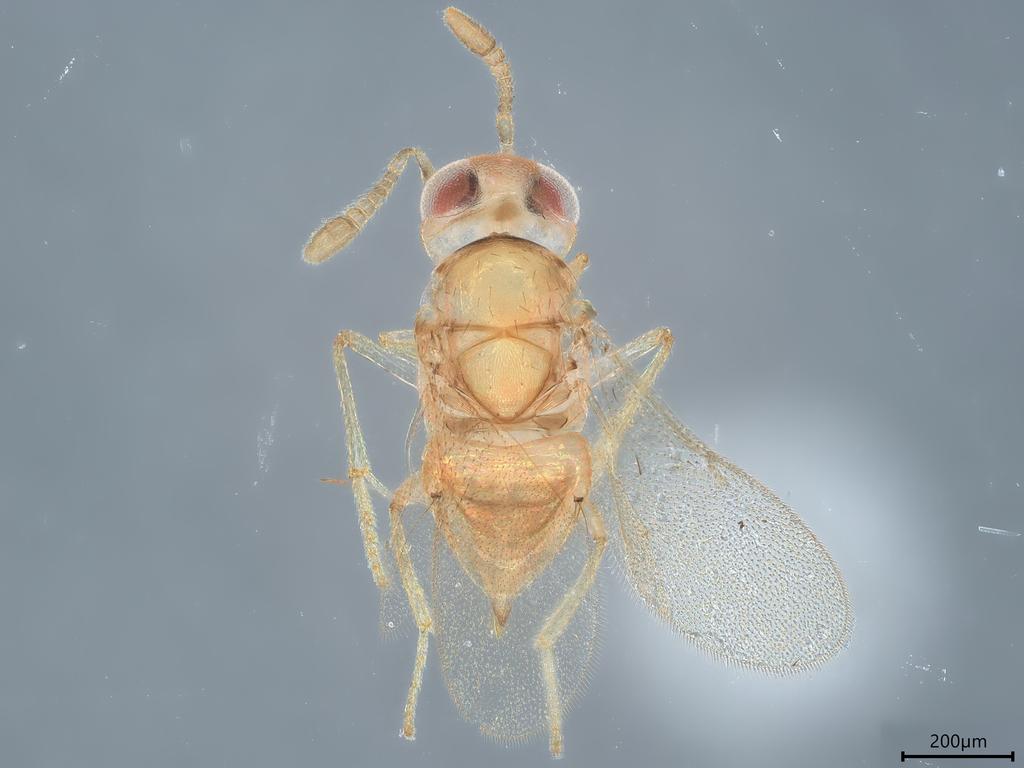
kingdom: Animalia
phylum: Arthropoda
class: Insecta
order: Hymenoptera
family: Encyrtidae
